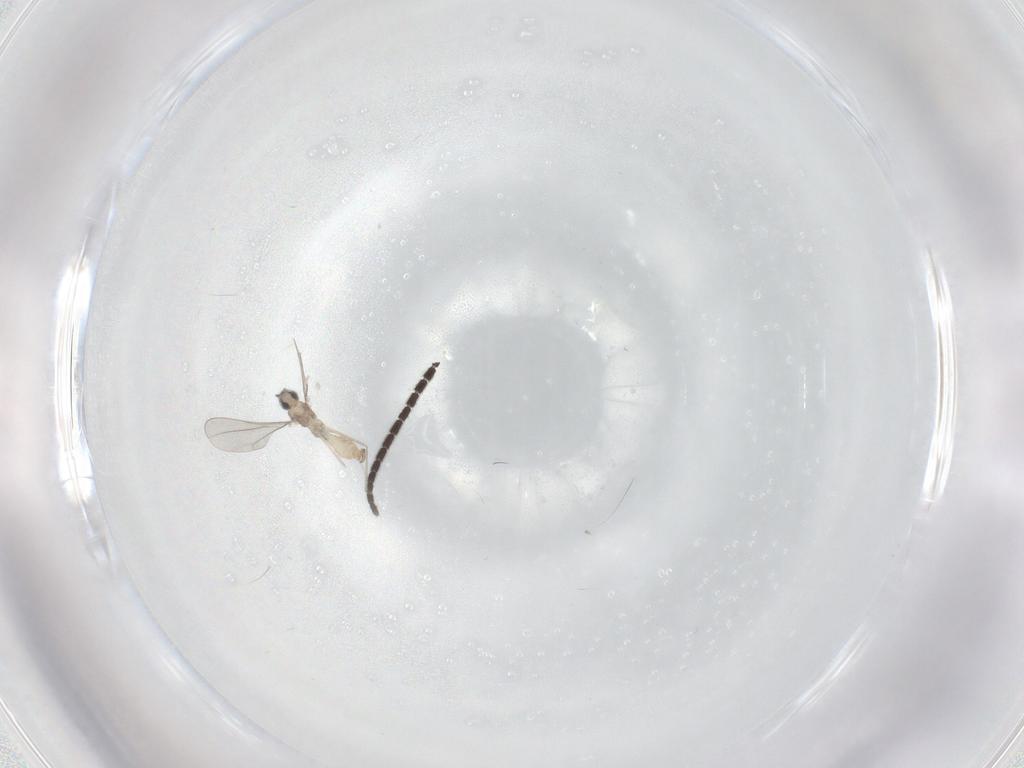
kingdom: Animalia
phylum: Arthropoda
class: Insecta
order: Diptera
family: Sciaridae
